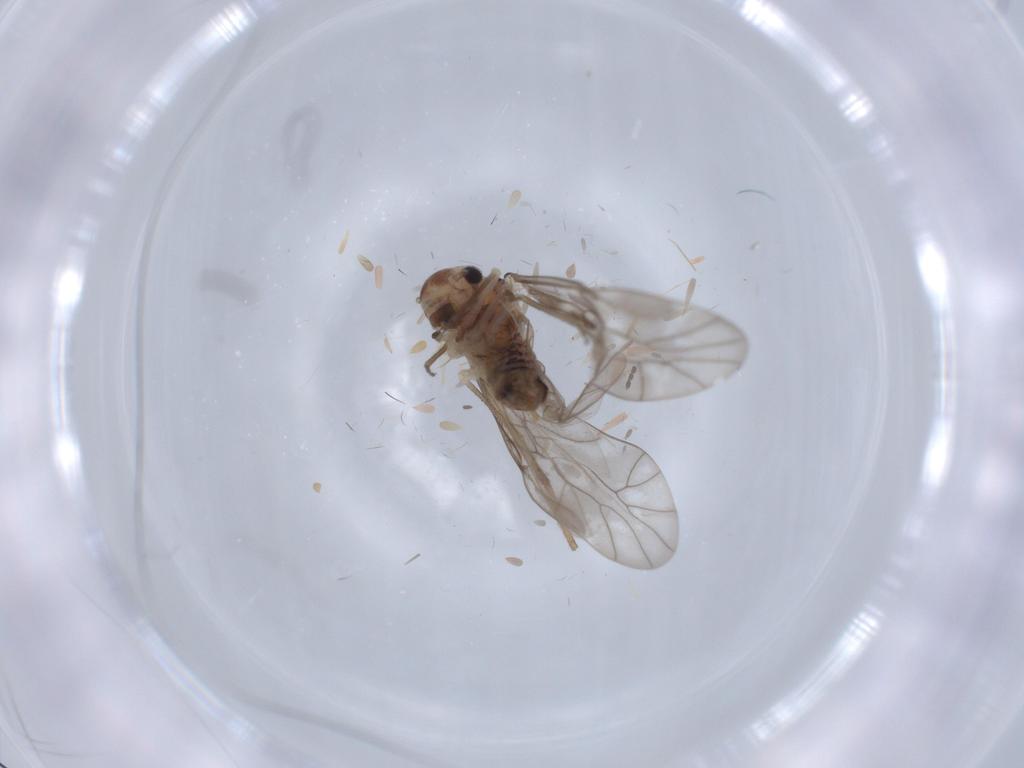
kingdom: Animalia
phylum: Arthropoda
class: Insecta
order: Psocodea
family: Peripsocidae
